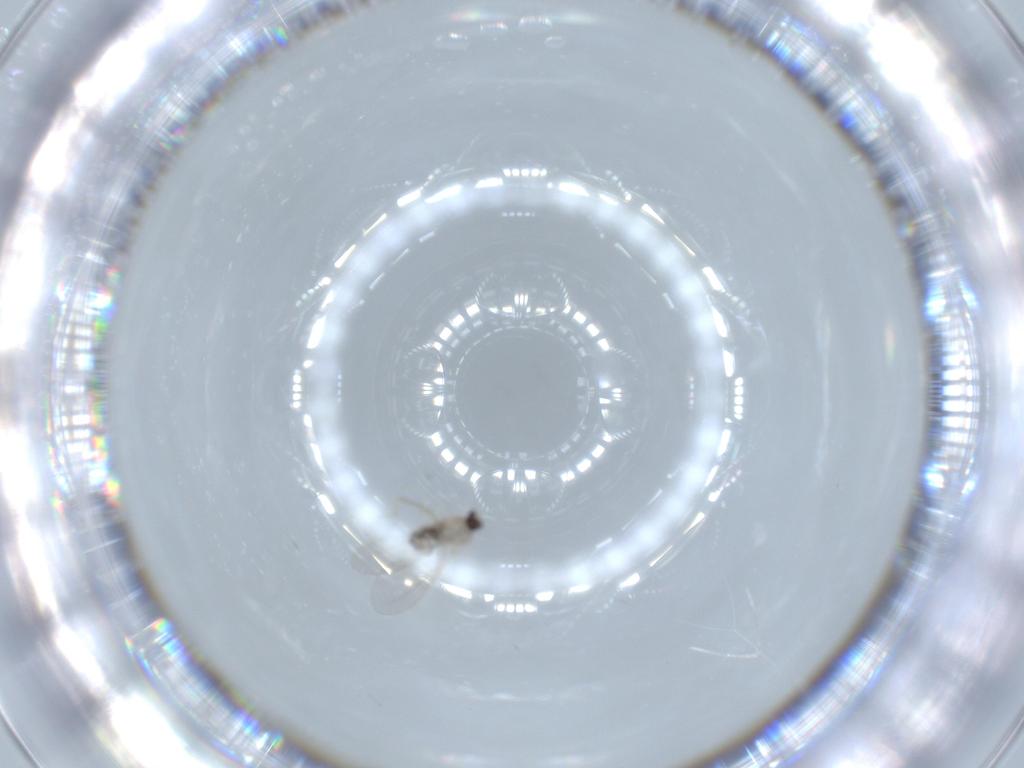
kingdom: Animalia
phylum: Arthropoda
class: Insecta
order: Diptera
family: Cecidomyiidae
